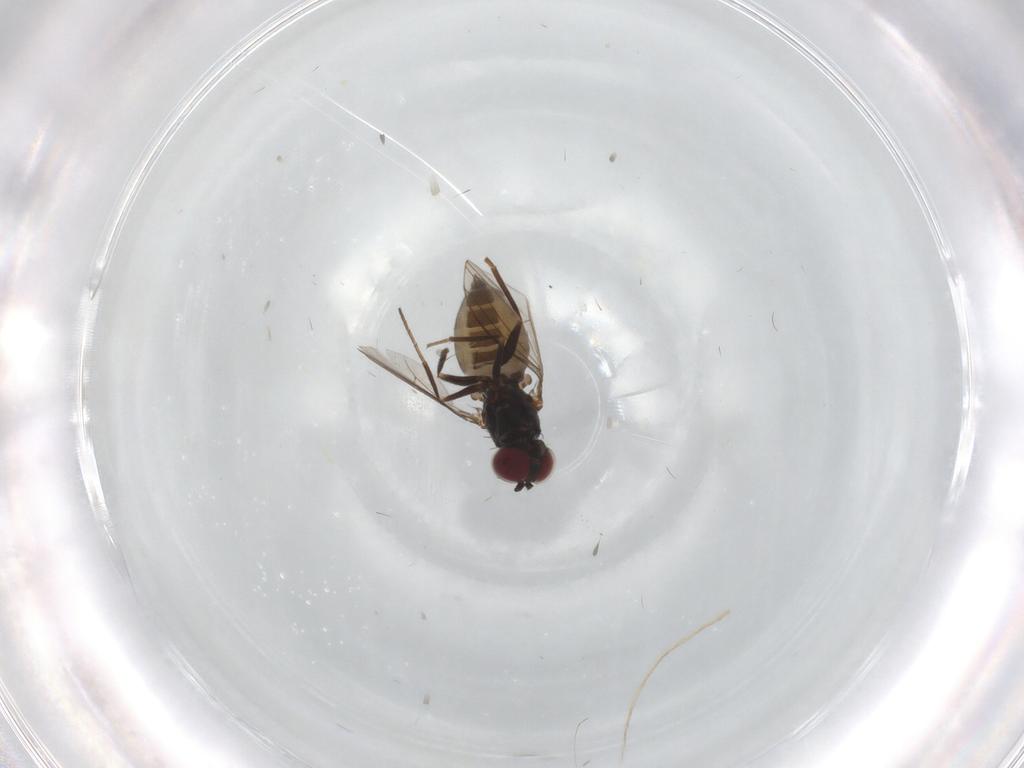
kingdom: Animalia
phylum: Arthropoda
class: Insecta
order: Diptera
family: Dolichopodidae
